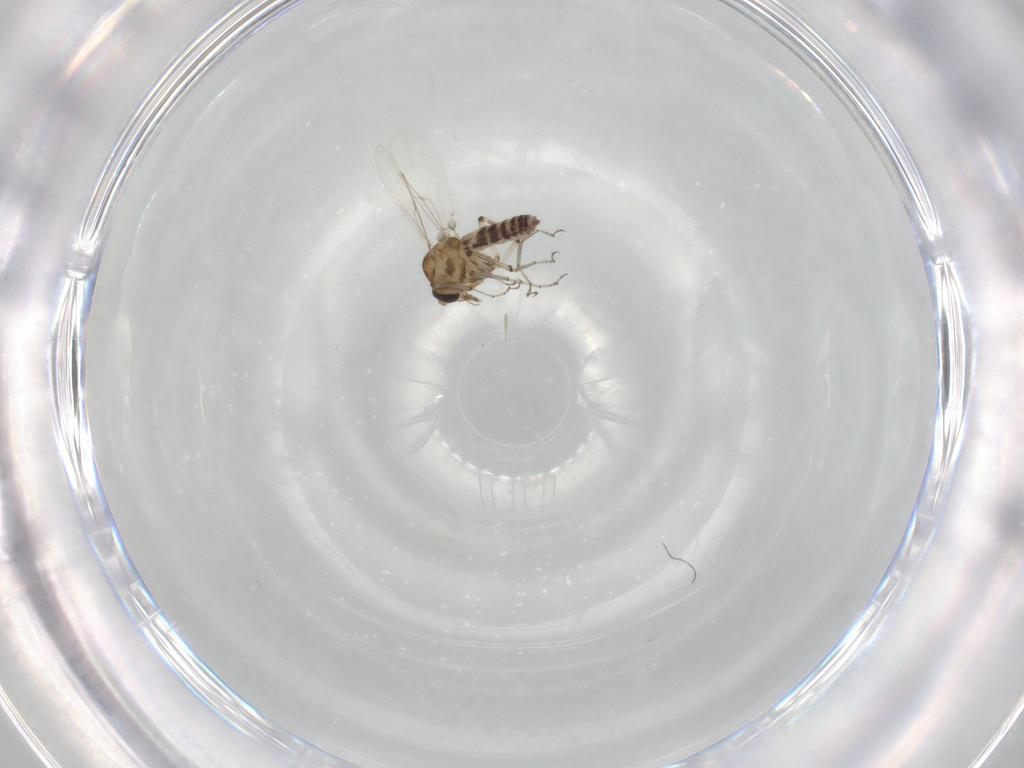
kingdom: Animalia
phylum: Arthropoda
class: Insecta
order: Diptera
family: Ceratopogonidae
